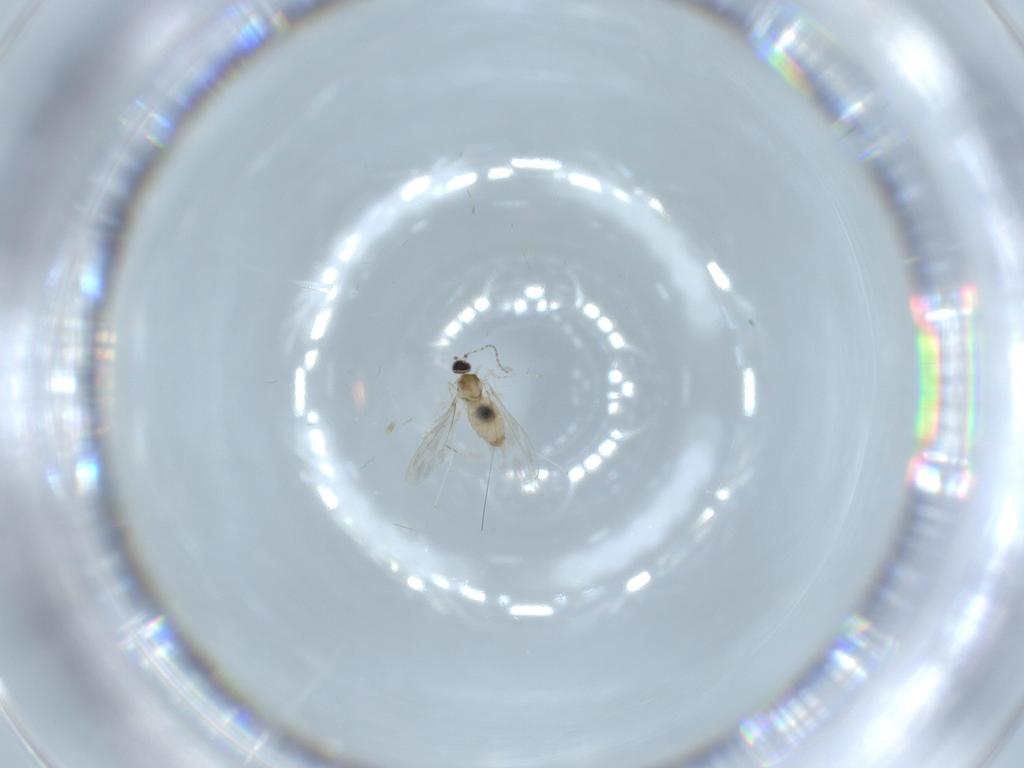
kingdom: Animalia
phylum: Arthropoda
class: Insecta
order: Diptera
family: Cecidomyiidae
